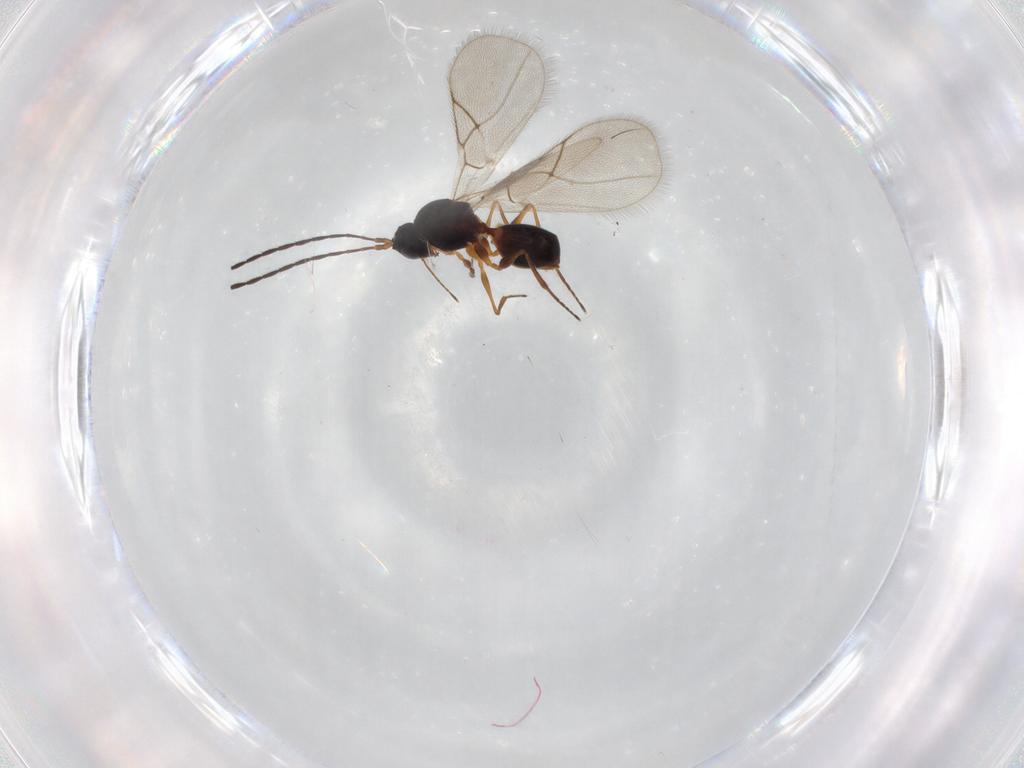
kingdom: Animalia
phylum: Arthropoda
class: Insecta
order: Hymenoptera
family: Figitidae
